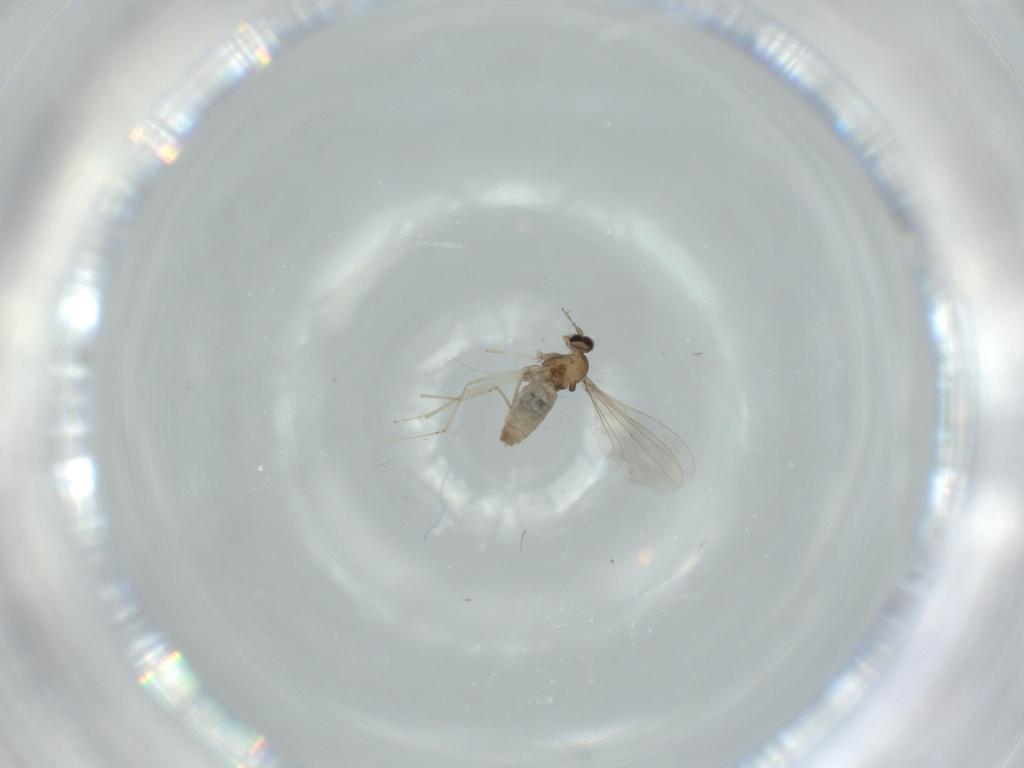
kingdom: Animalia
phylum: Arthropoda
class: Insecta
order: Diptera
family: Cecidomyiidae
